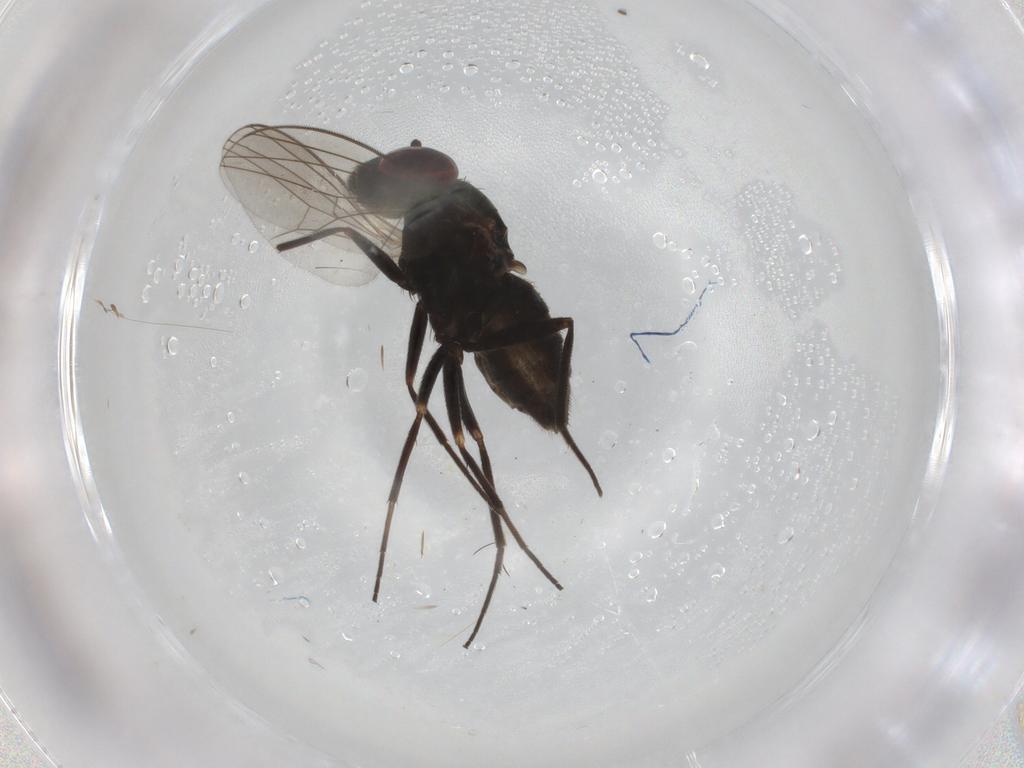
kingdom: Animalia
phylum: Arthropoda
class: Insecta
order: Diptera
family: Dolichopodidae
